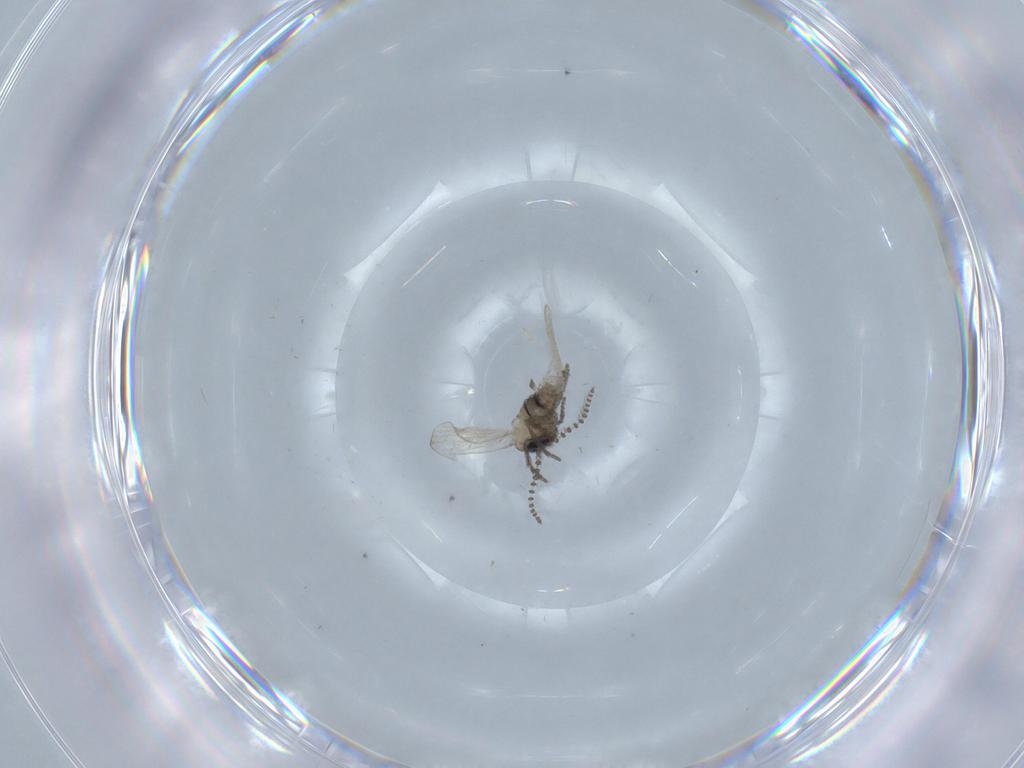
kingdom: Animalia
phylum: Arthropoda
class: Insecta
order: Diptera
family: Psychodidae
